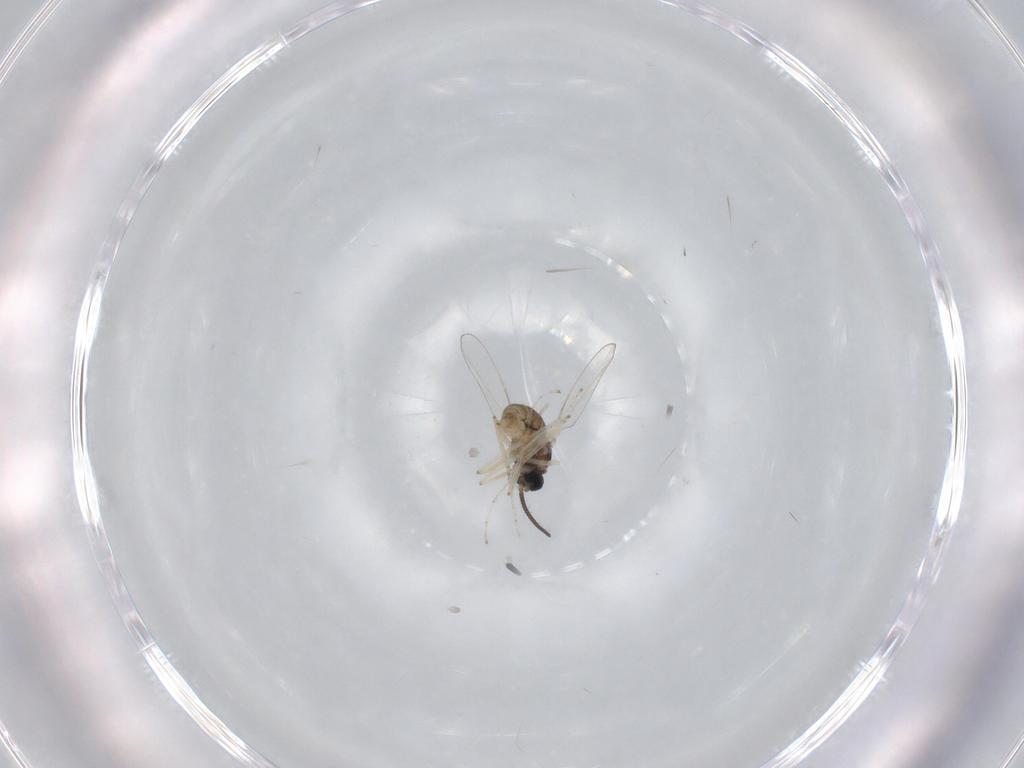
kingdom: Animalia
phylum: Arthropoda
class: Insecta
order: Diptera
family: Cecidomyiidae
